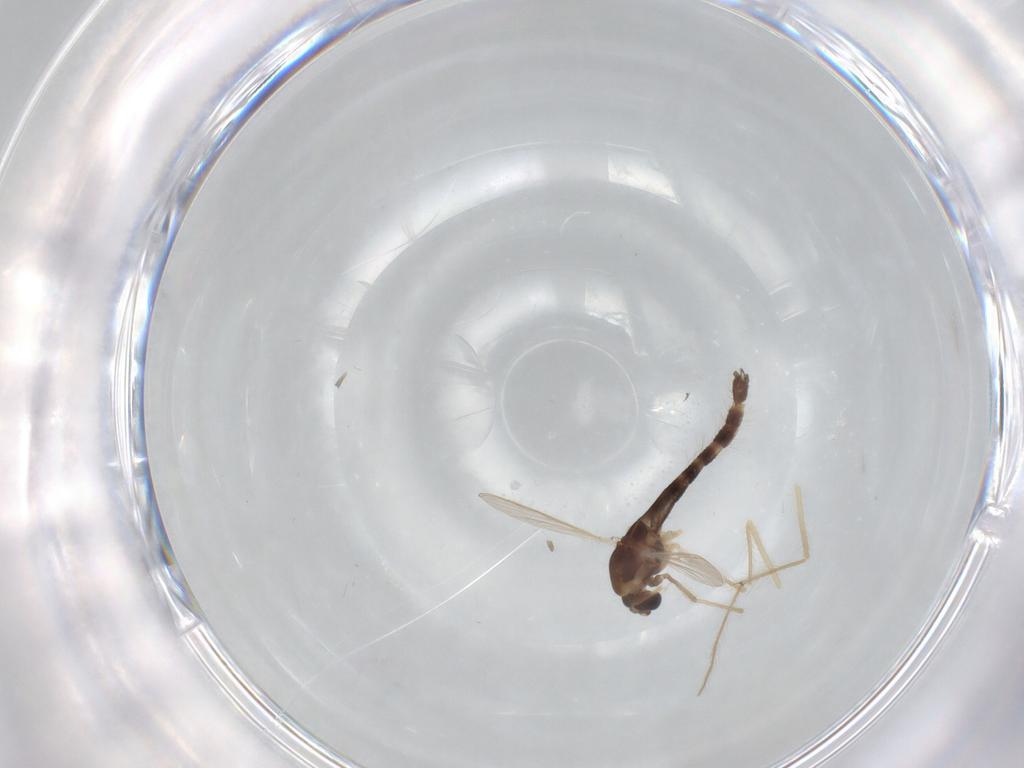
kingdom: Animalia
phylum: Arthropoda
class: Insecta
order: Diptera
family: Chironomidae
